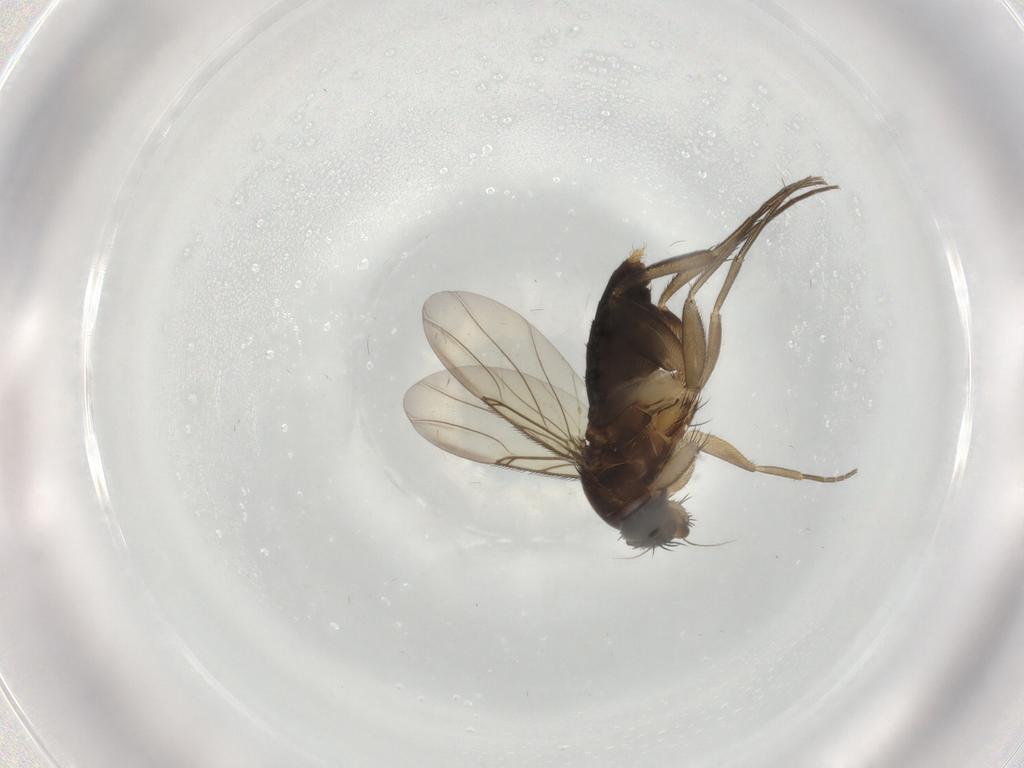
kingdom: Animalia
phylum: Arthropoda
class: Insecta
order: Diptera
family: Phoridae
